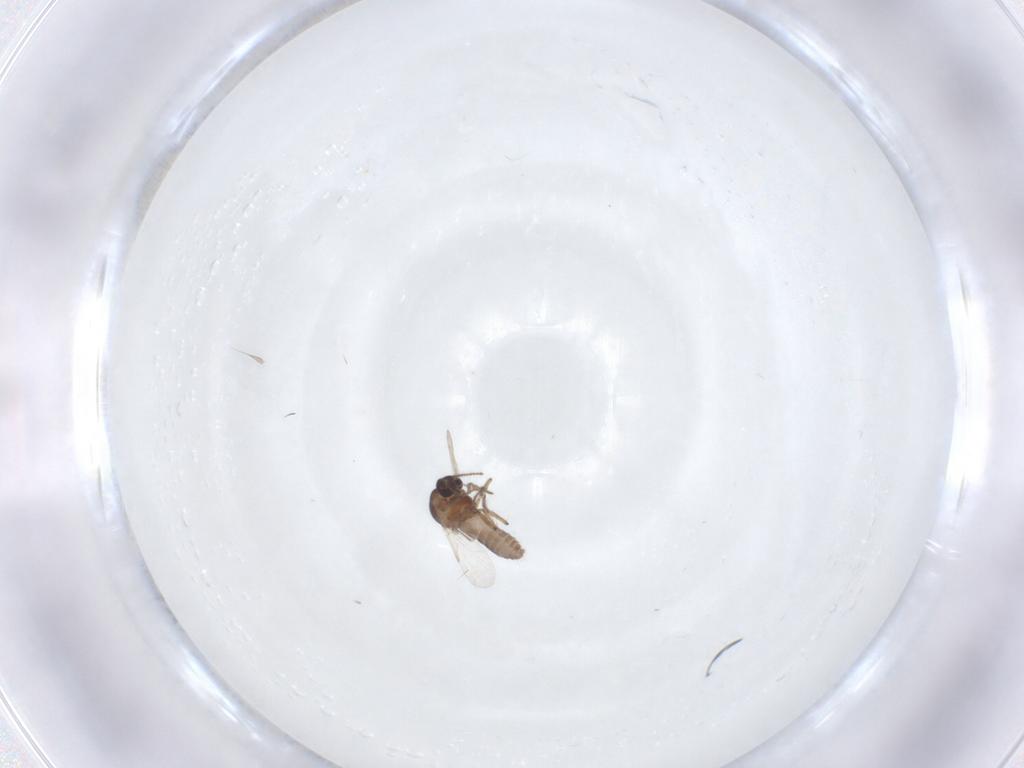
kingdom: Animalia
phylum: Arthropoda
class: Insecta
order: Diptera
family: Ceratopogonidae
